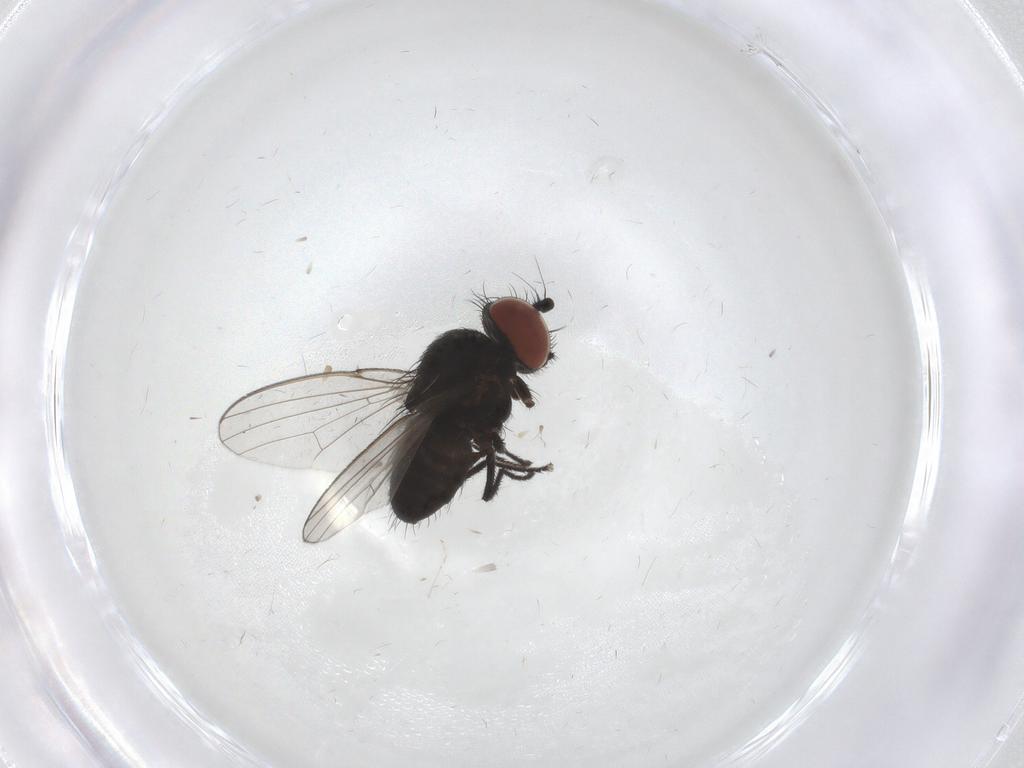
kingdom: Animalia
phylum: Arthropoda
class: Insecta
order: Diptera
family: Milichiidae
